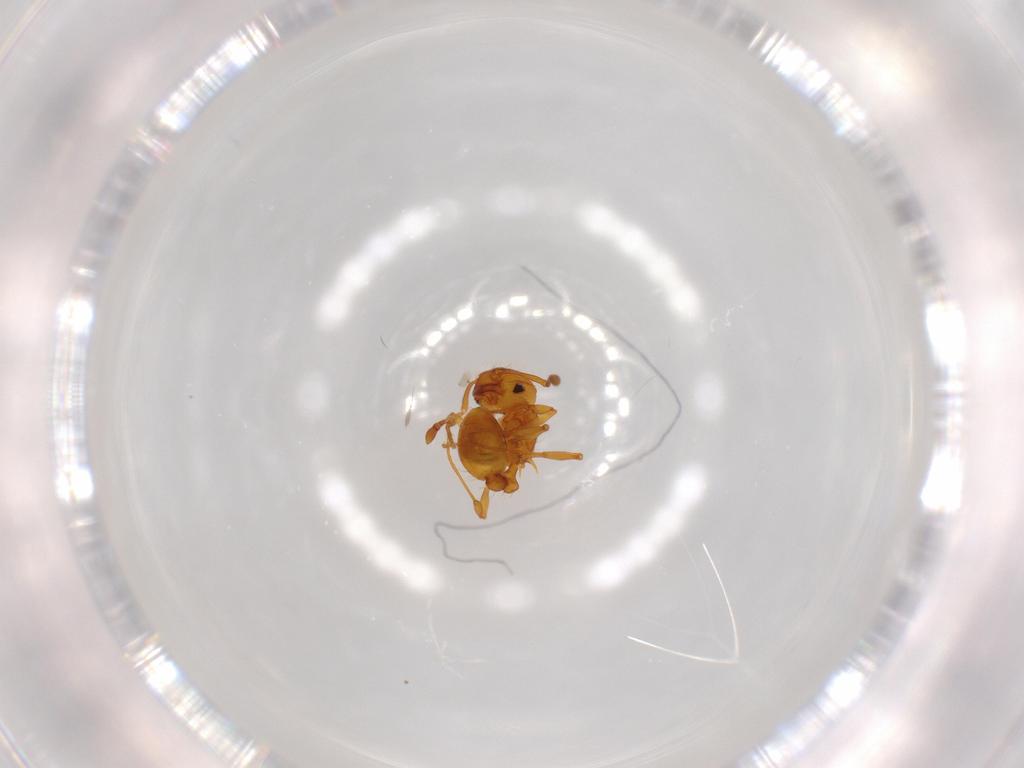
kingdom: Animalia
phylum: Arthropoda
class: Insecta
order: Hymenoptera
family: Formicidae
